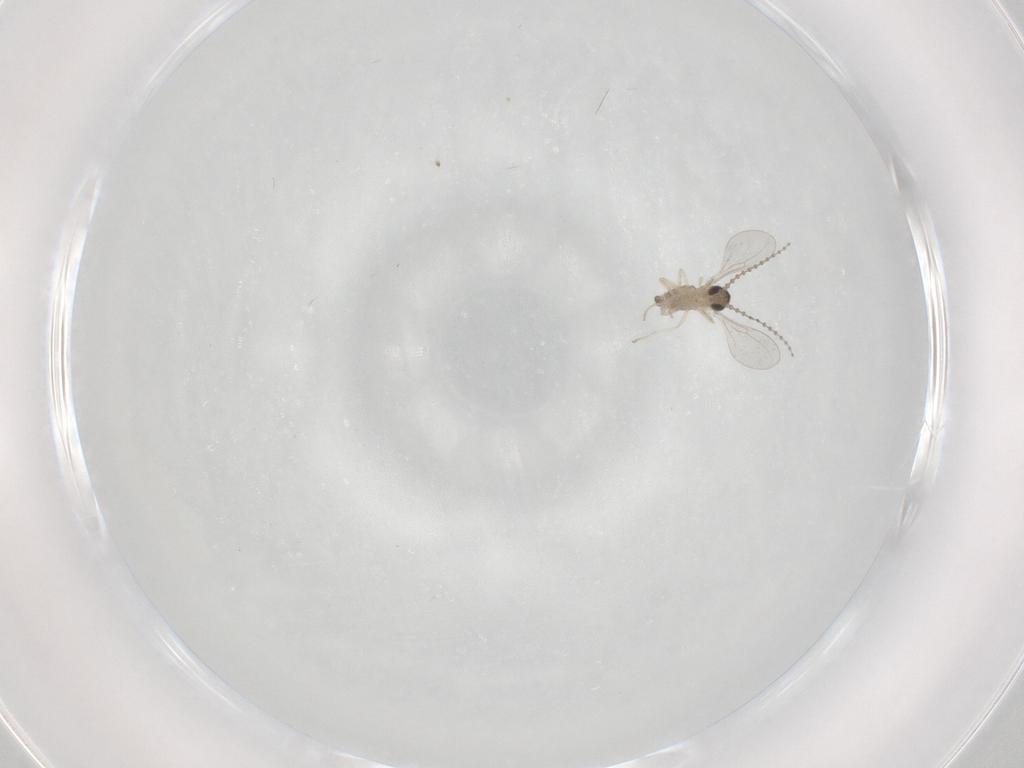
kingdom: Animalia
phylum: Arthropoda
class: Insecta
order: Diptera
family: Cecidomyiidae
